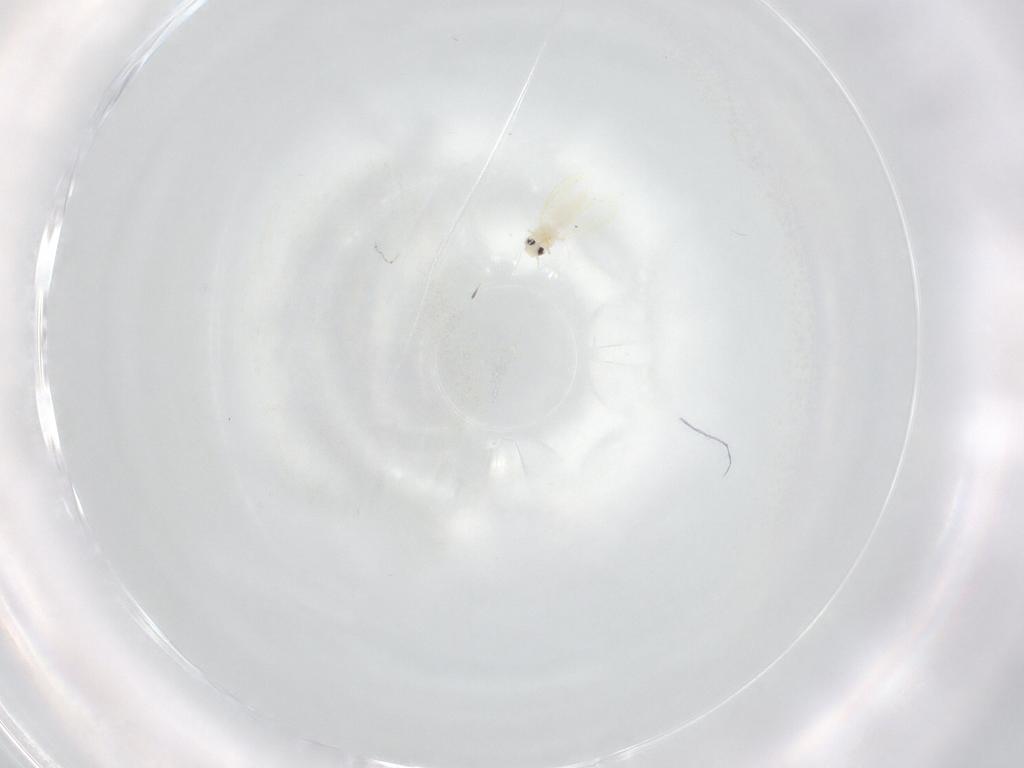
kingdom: Animalia
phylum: Arthropoda
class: Insecta
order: Hemiptera
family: Aleyrodidae
